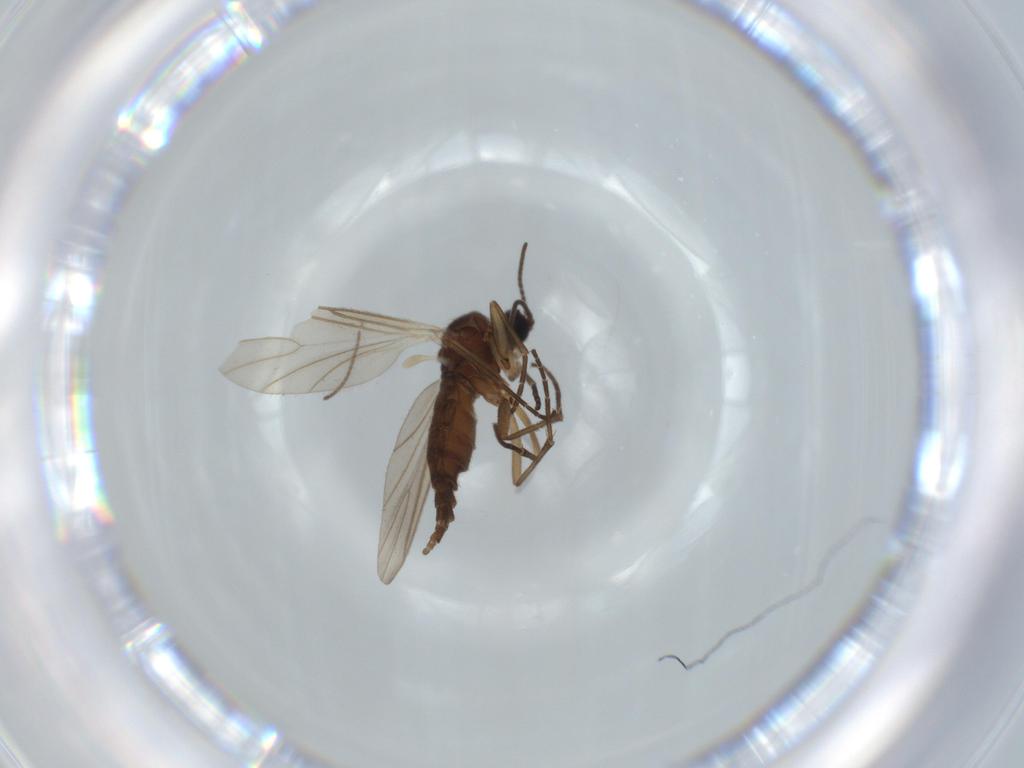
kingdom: Animalia
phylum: Arthropoda
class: Insecta
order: Diptera
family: Sciaridae
